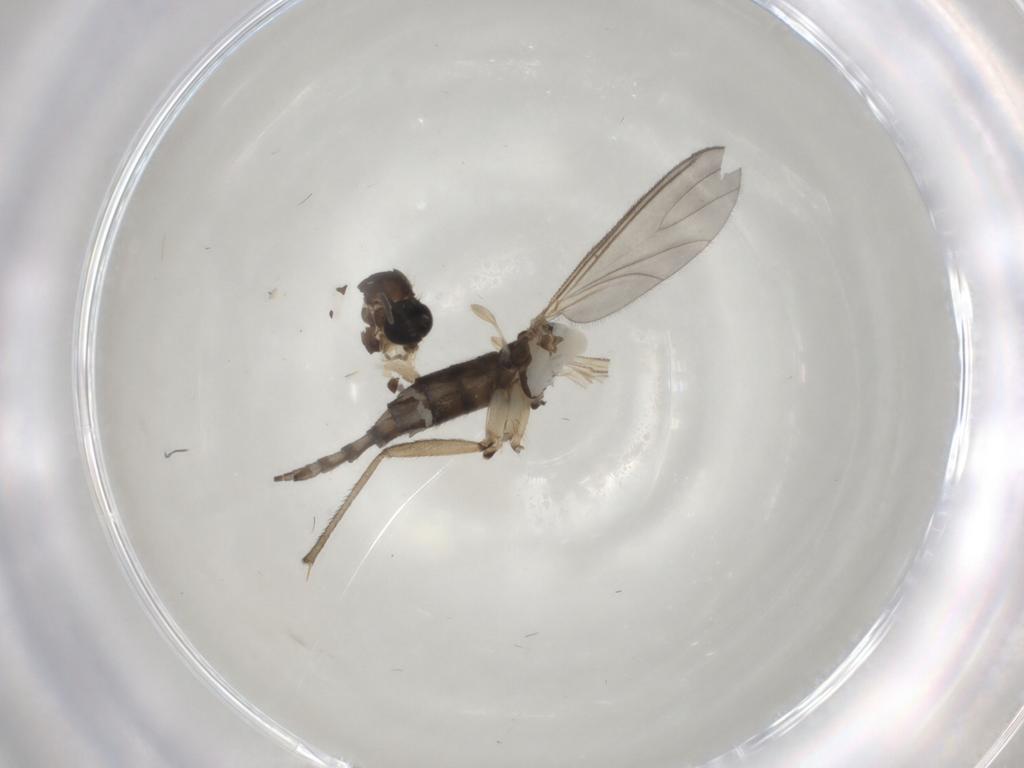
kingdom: Animalia
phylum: Arthropoda
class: Insecta
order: Diptera
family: Sciaridae
